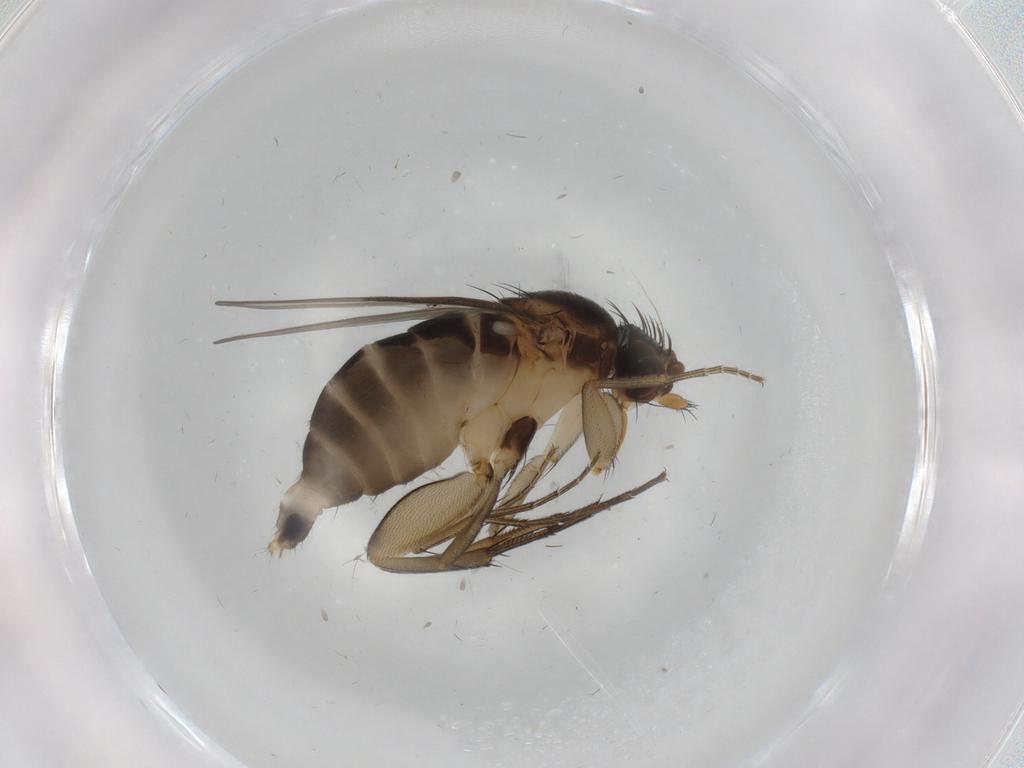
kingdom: Animalia
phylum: Arthropoda
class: Insecta
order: Diptera
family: Phoridae
